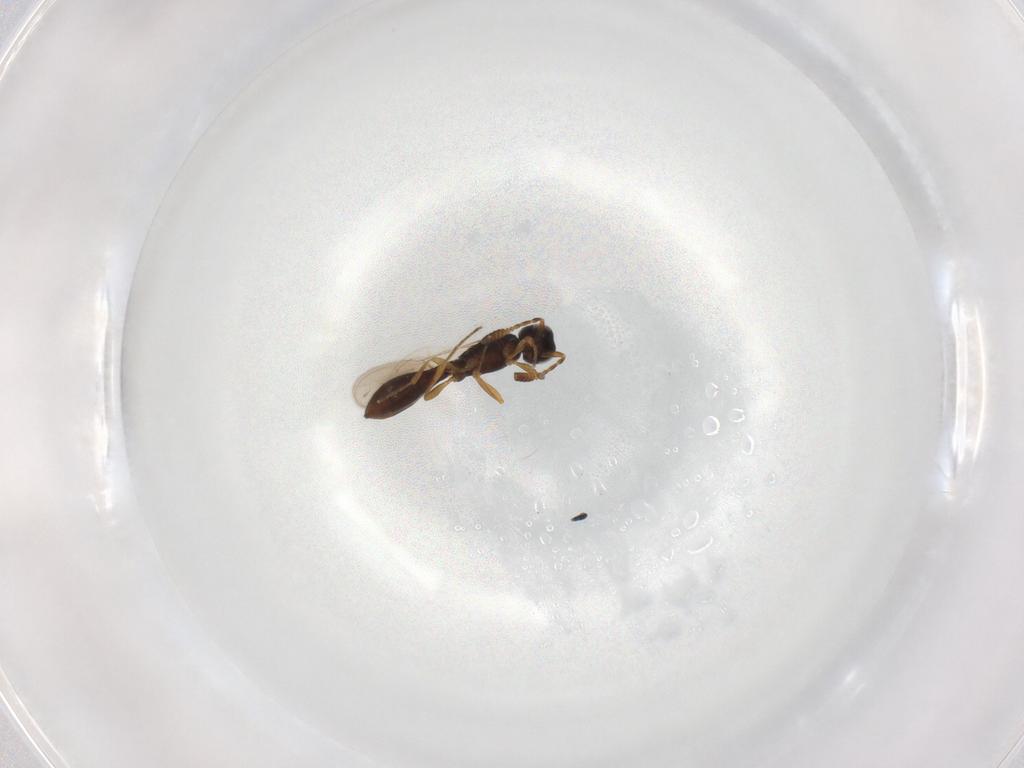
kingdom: Animalia
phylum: Arthropoda
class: Insecta
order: Hymenoptera
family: Scelionidae
